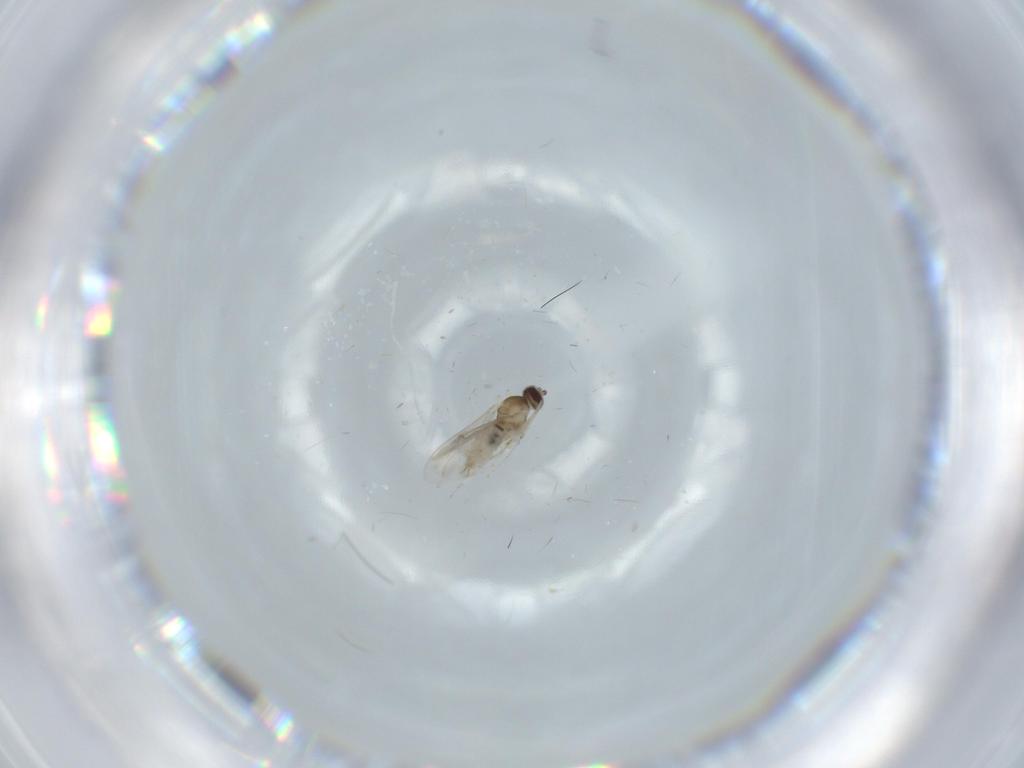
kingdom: Animalia
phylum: Arthropoda
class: Insecta
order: Diptera
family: Cecidomyiidae
